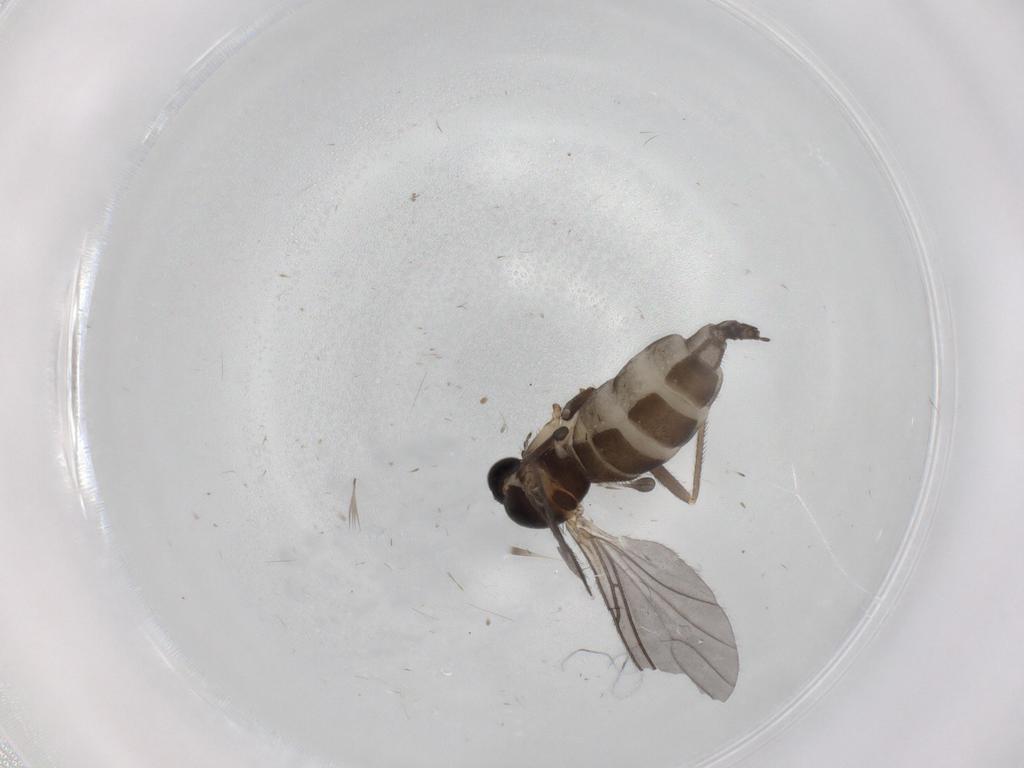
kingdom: Animalia
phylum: Arthropoda
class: Insecta
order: Diptera
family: Sciaridae
